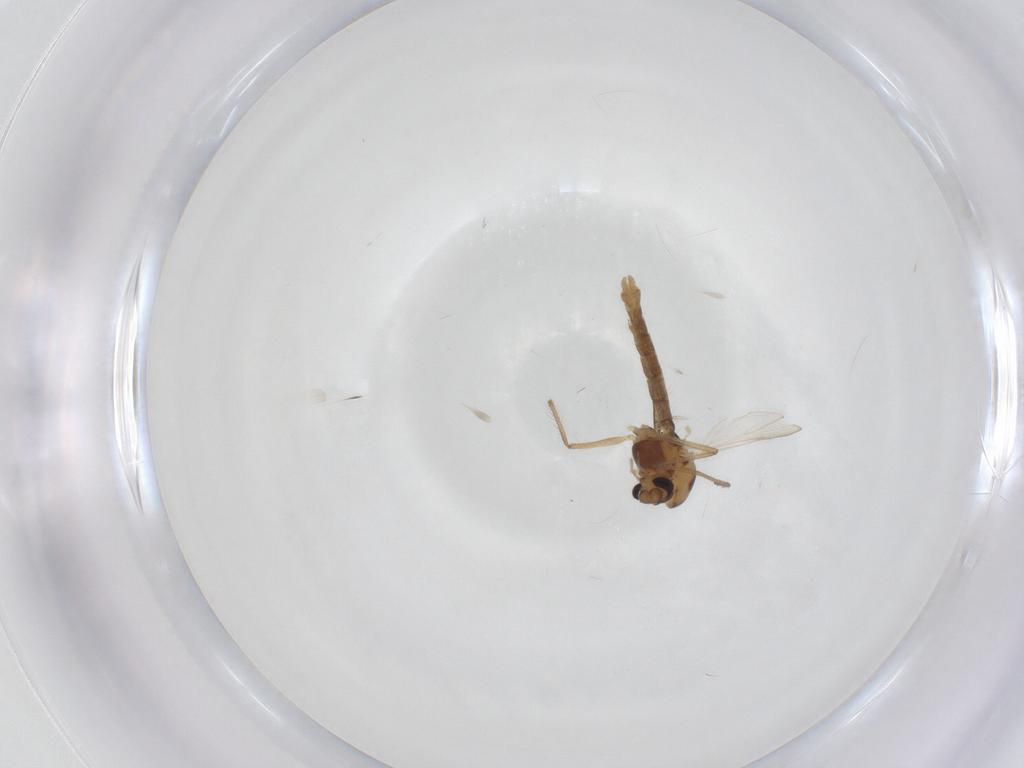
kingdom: Animalia
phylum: Arthropoda
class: Insecta
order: Diptera
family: Chironomidae
